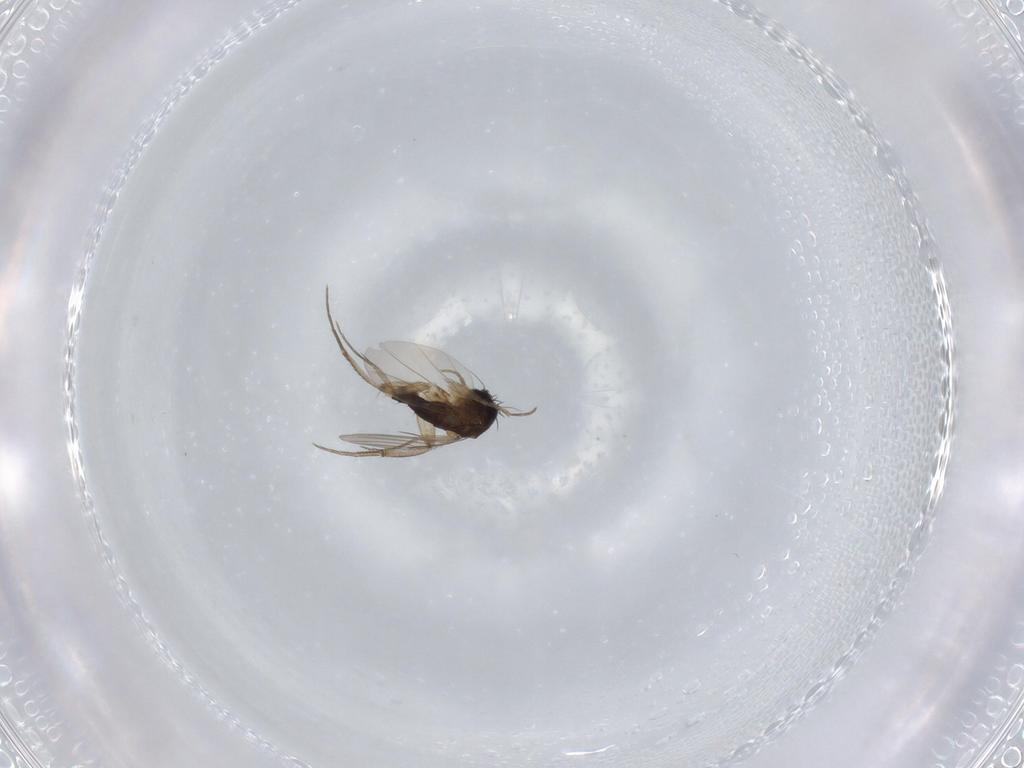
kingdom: Animalia
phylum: Arthropoda
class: Insecta
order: Diptera
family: Phoridae
